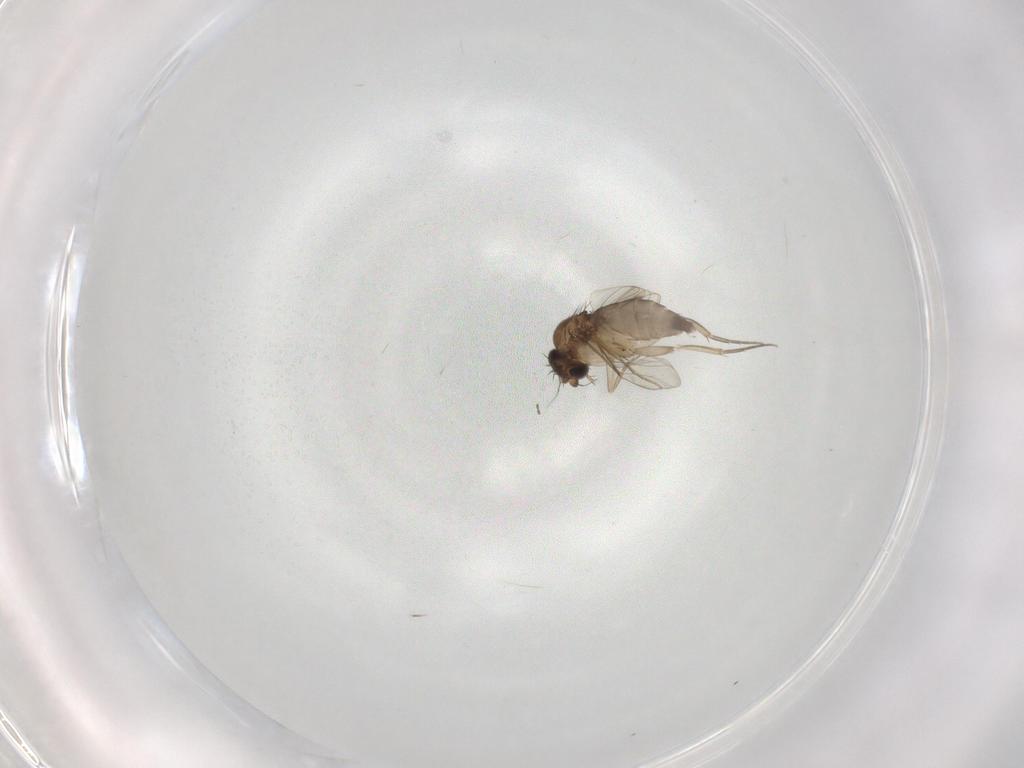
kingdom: Animalia
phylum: Arthropoda
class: Insecta
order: Diptera
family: Cecidomyiidae
